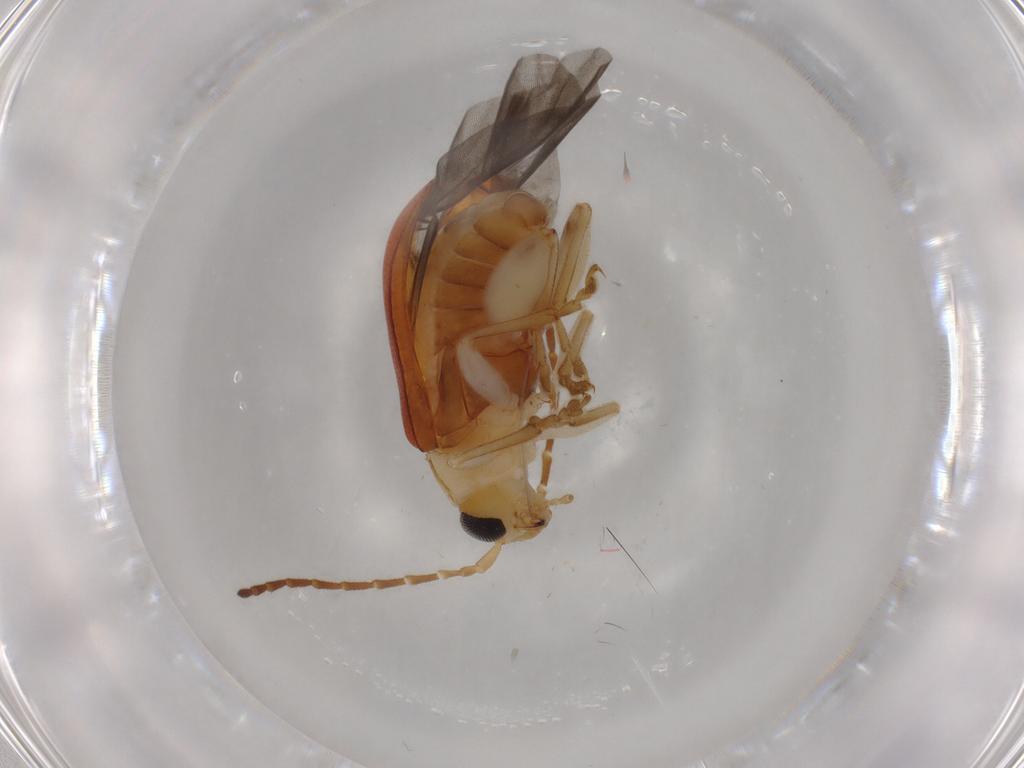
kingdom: Animalia
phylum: Arthropoda
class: Insecta
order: Coleoptera
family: Chrysomelidae
